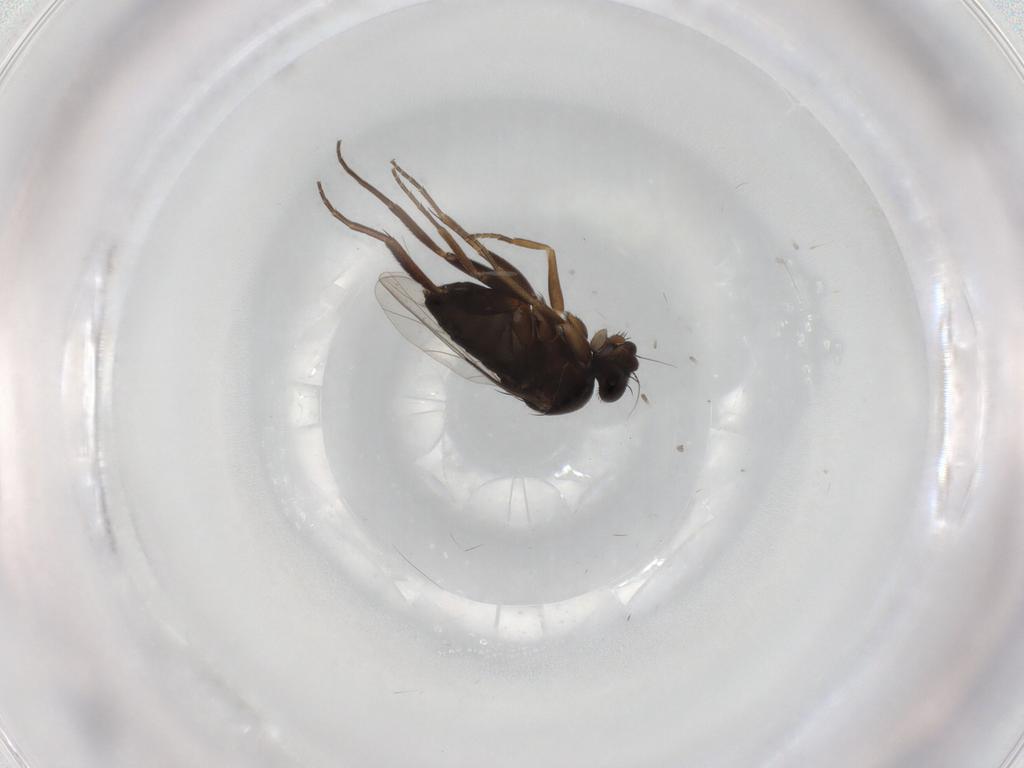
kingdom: Animalia
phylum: Arthropoda
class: Insecta
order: Diptera
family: Phoridae
